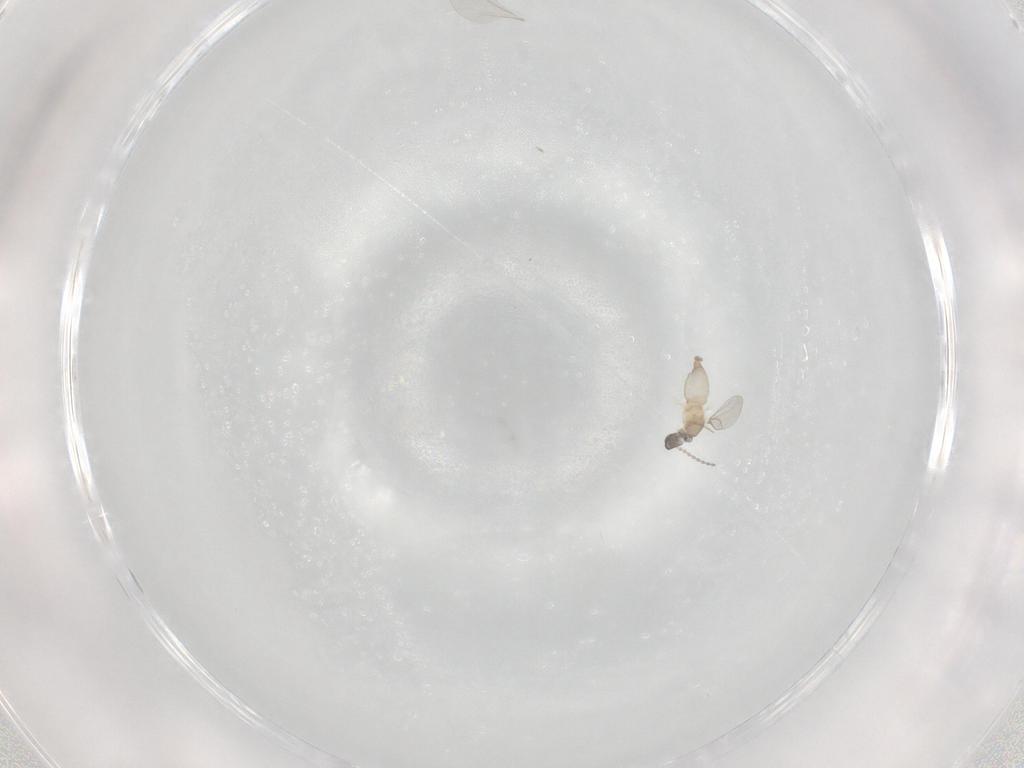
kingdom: Animalia
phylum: Arthropoda
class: Insecta
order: Diptera
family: Cecidomyiidae
